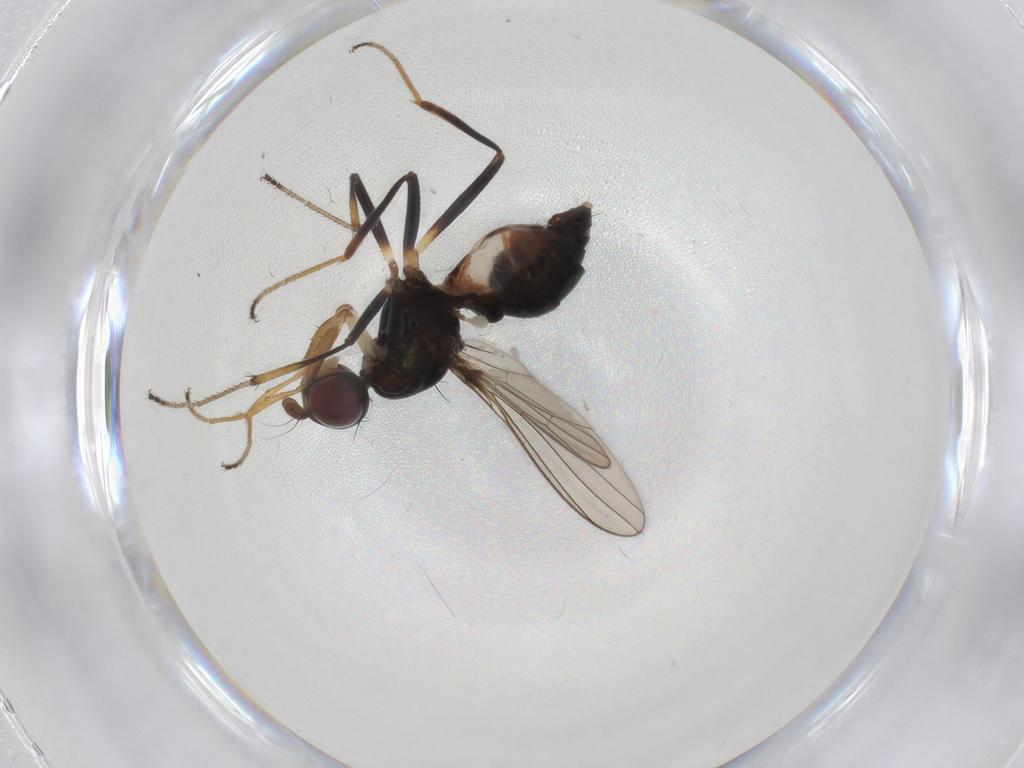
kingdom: Animalia
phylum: Arthropoda
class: Insecta
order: Diptera
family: Sepsidae
